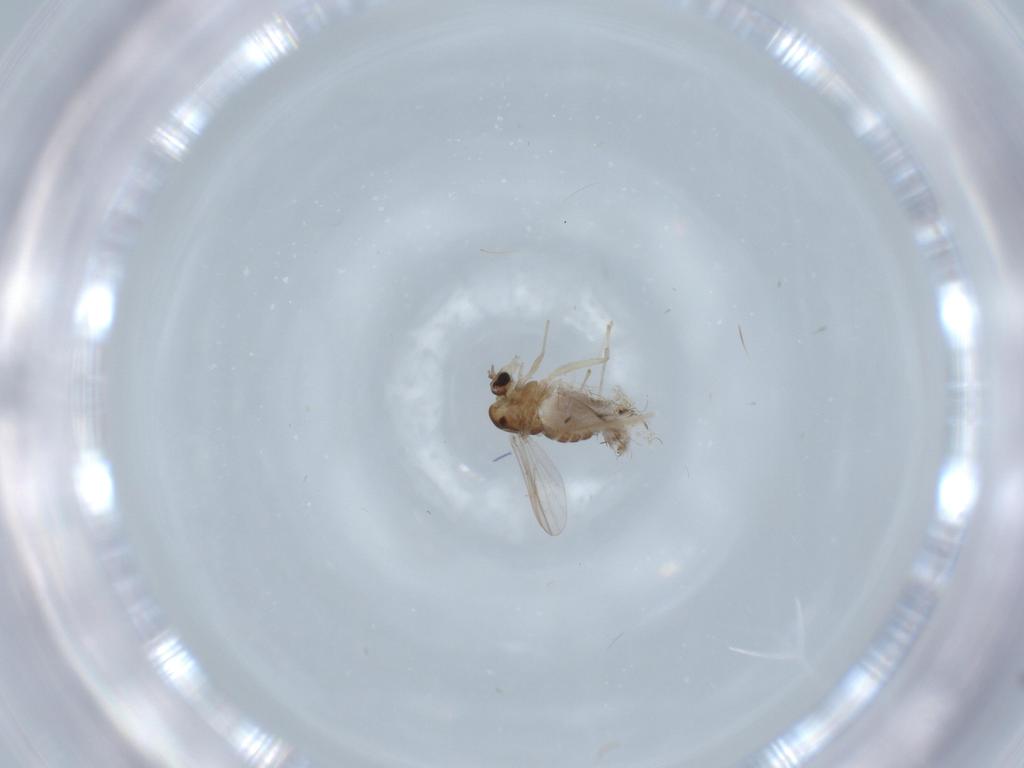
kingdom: Animalia
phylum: Arthropoda
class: Insecta
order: Diptera
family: Chironomidae
